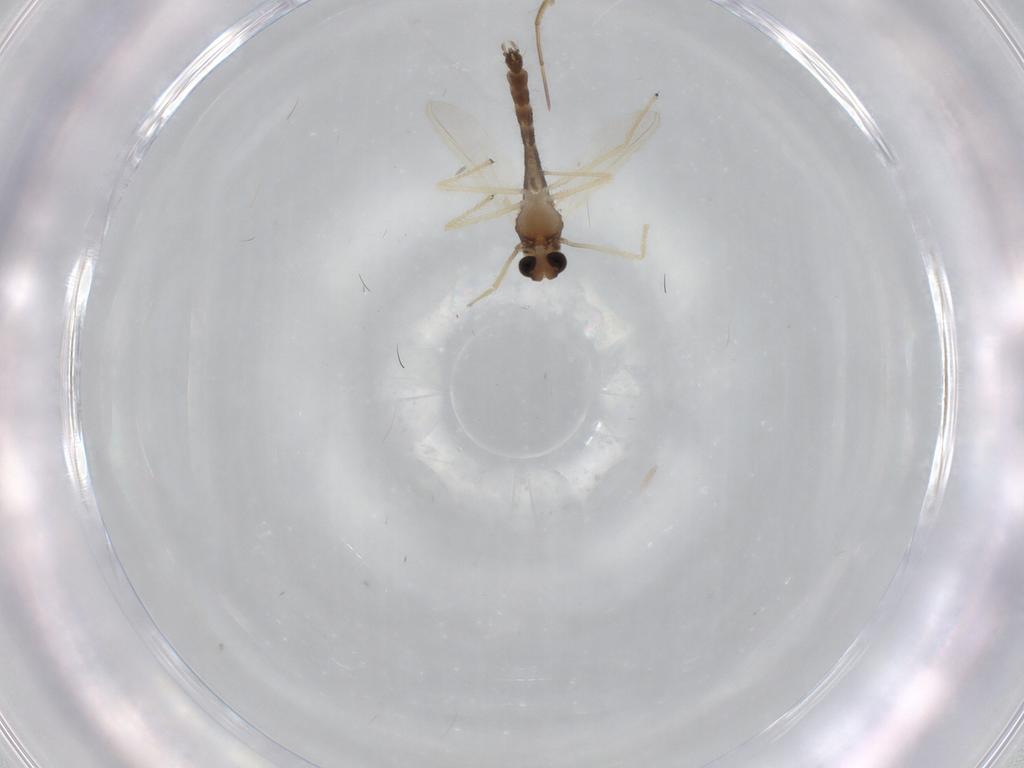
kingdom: Animalia
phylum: Arthropoda
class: Insecta
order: Diptera
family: Chironomidae
